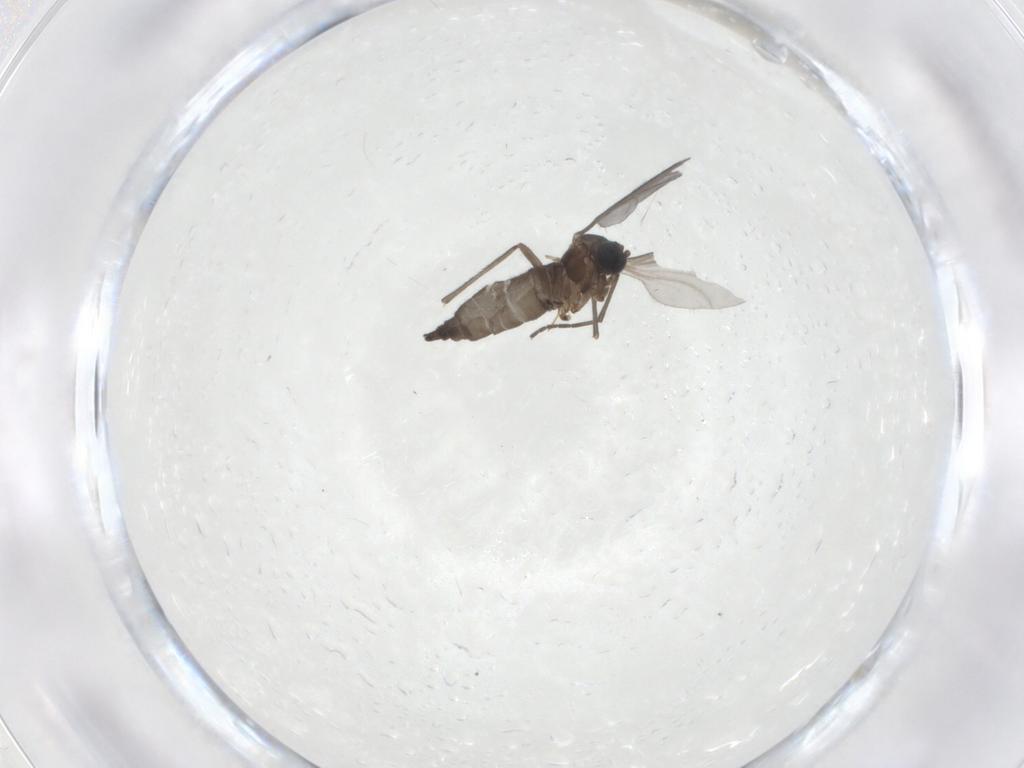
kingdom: Animalia
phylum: Arthropoda
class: Insecta
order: Diptera
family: Sciaridae
